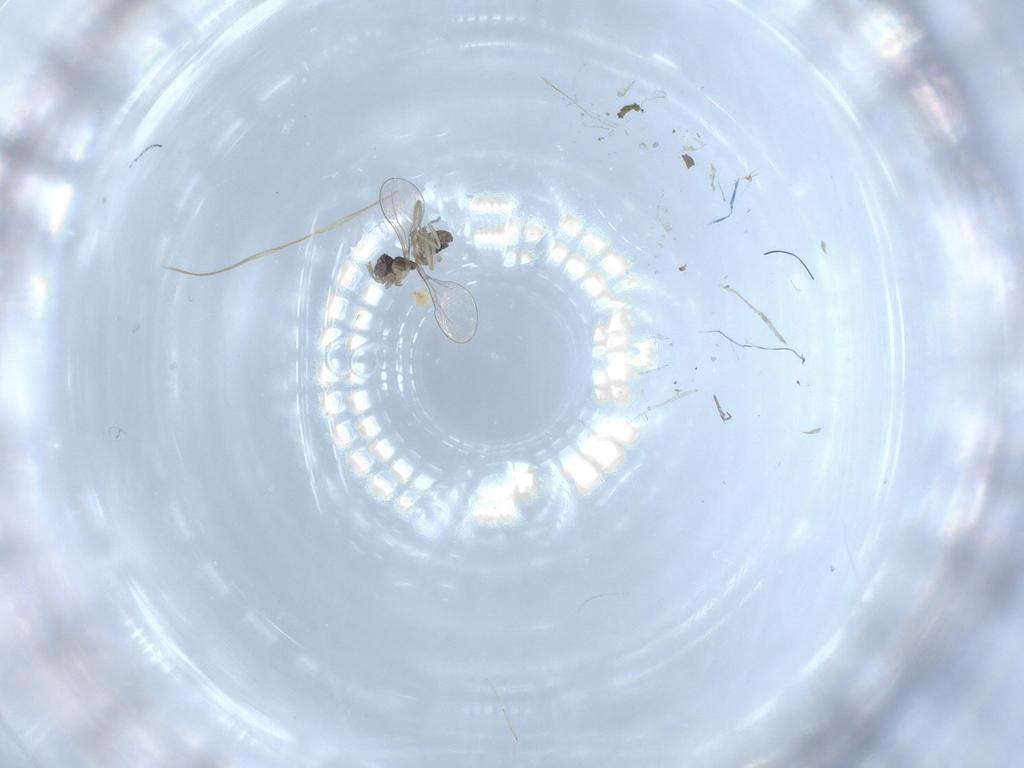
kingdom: Animalia
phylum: Arthropoda
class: Insecta
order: Diptera
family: Cecidomyiidae
